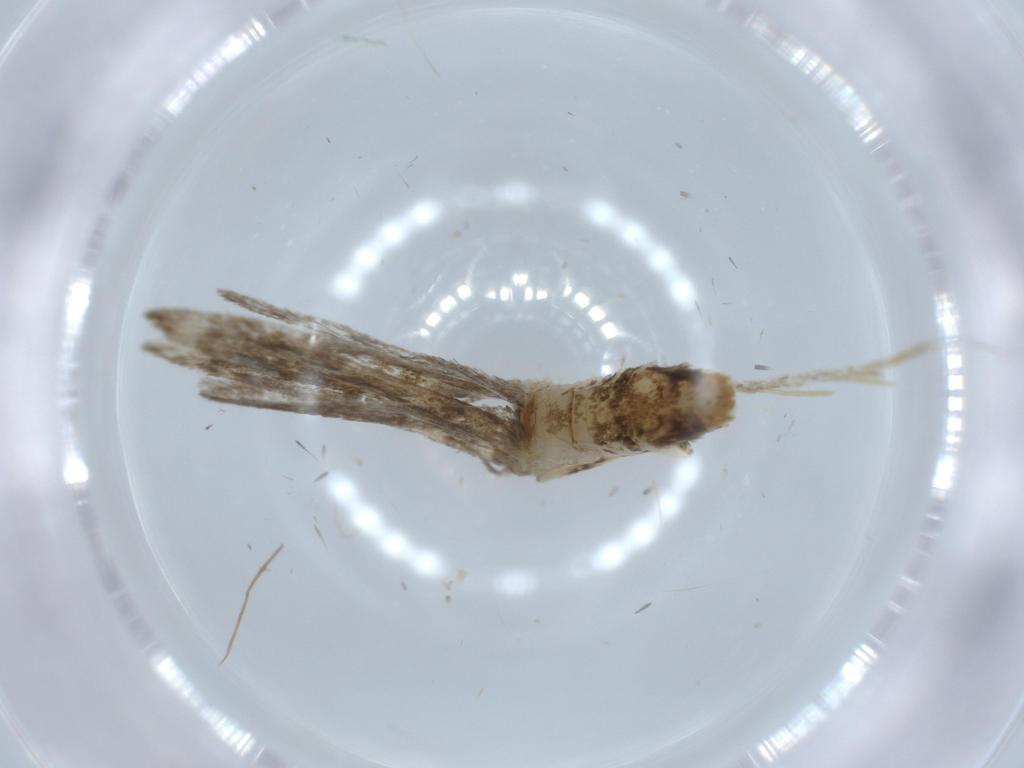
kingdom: Animalia
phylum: Arthropoda
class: Insecta
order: Lepidoptera
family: Tineidae
